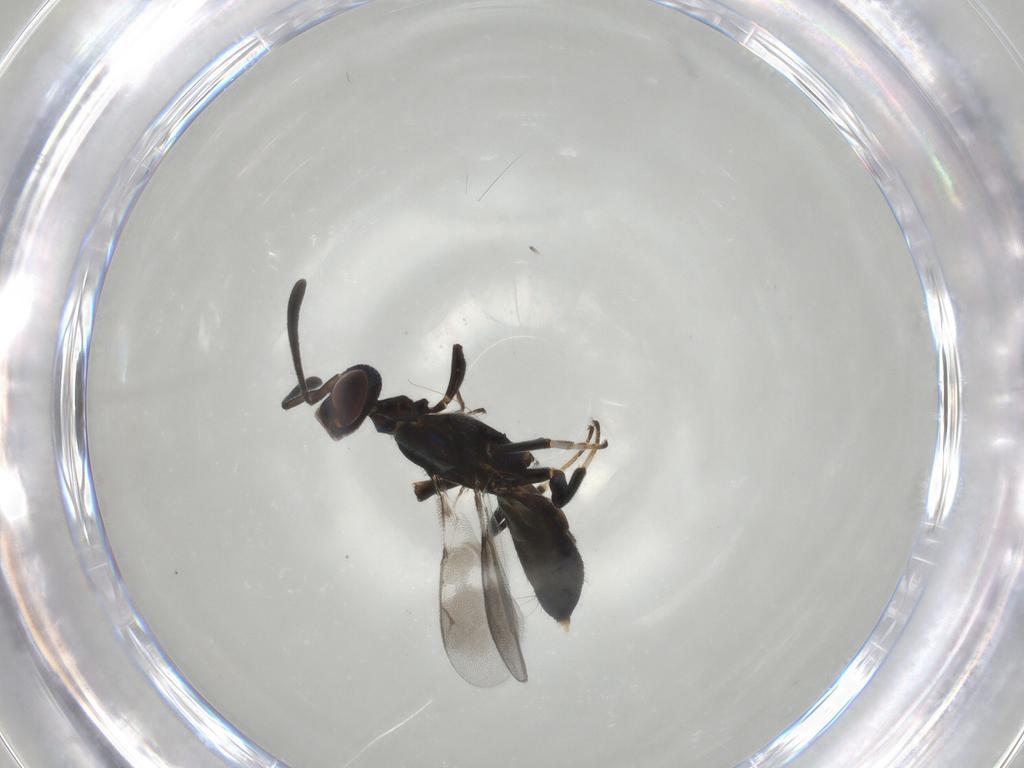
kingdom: Animalia
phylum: Arthropoda
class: Insecta
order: Hymenoptera
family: Eupelmidae
